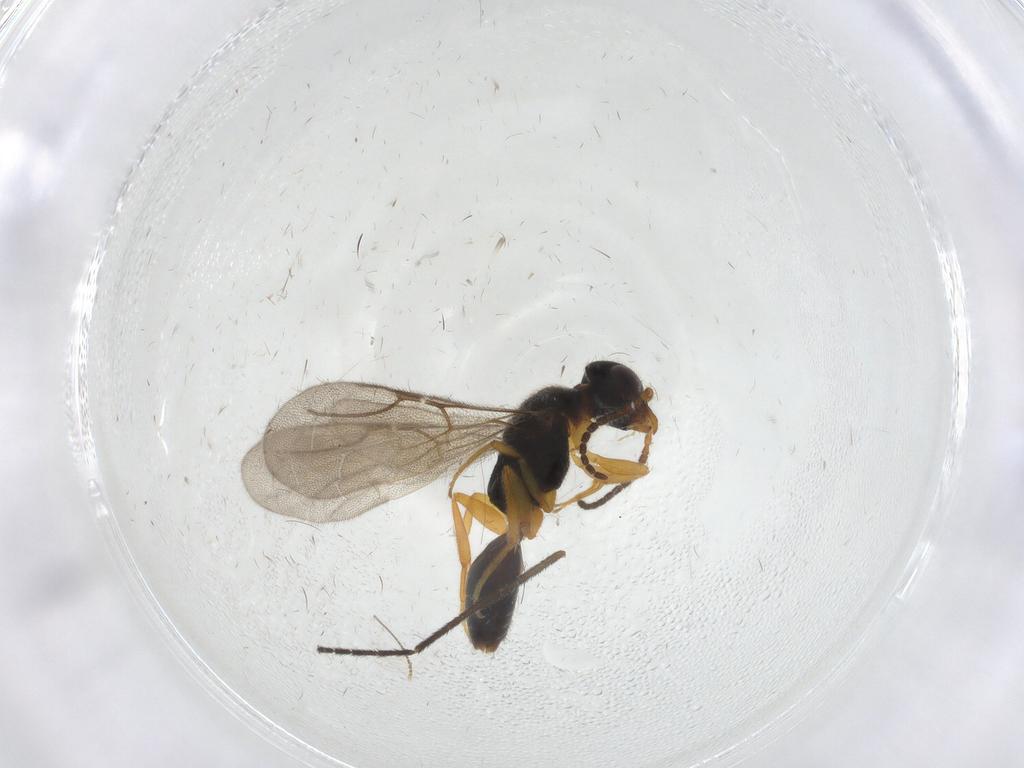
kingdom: Animalia
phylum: Arthropoda
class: Insecta
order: Hymenoptera
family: Bethylidae
